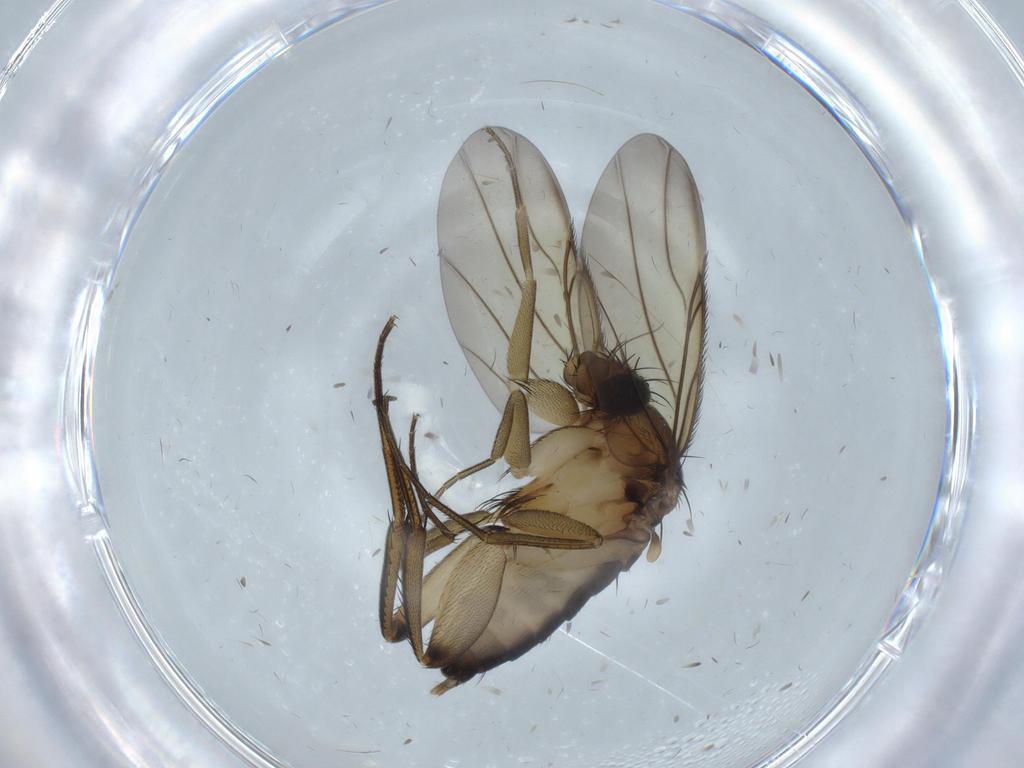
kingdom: Animalia
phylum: Arthropoda
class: Insecta
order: Diptera
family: Phoridae
